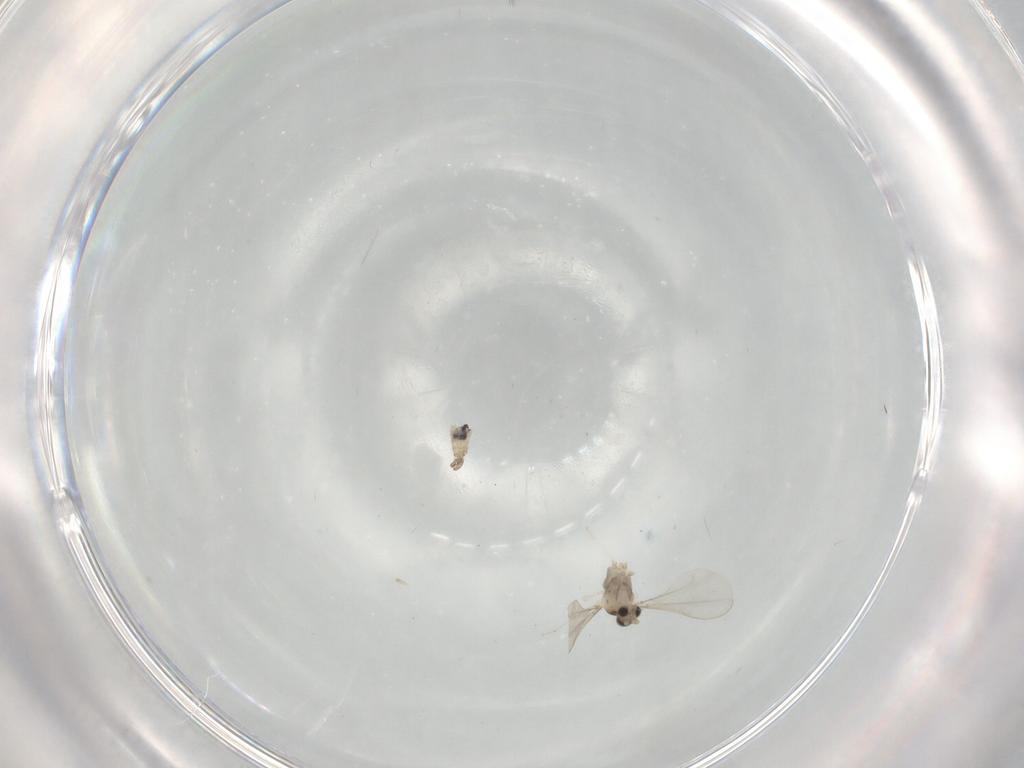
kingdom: Animalia
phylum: Arthropoda
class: Insecta
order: Diptera
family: Cecidomyiidae
